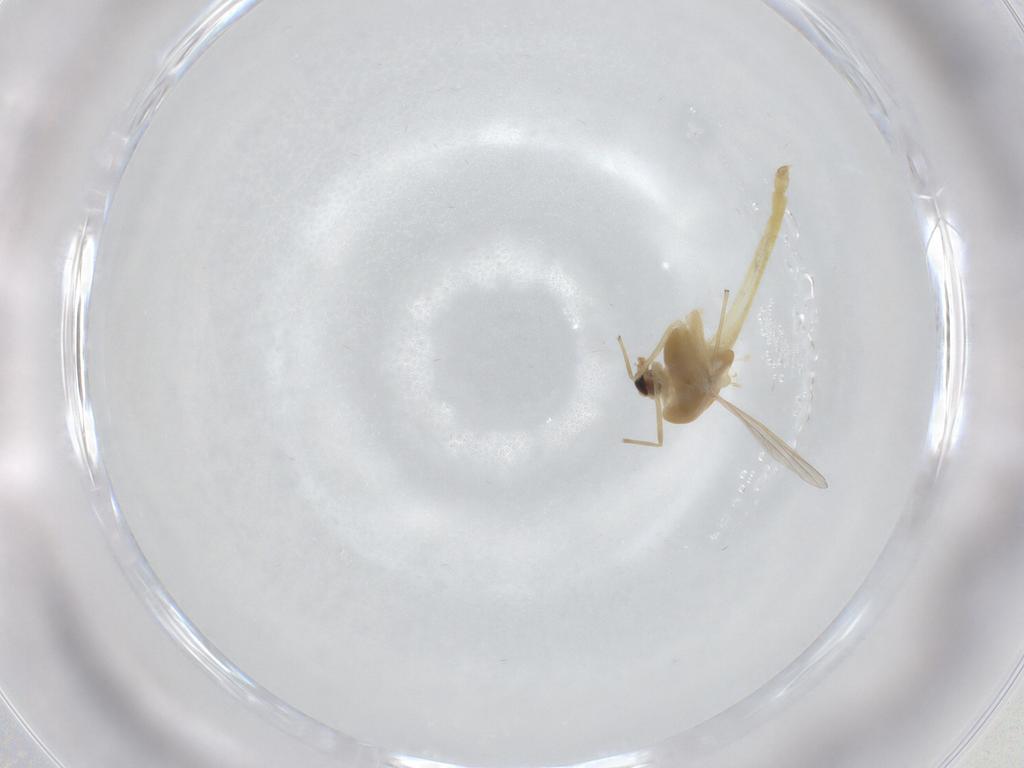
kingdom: Animalia
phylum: Arthropoda
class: Insecta
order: Diptera
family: Chironomidae
